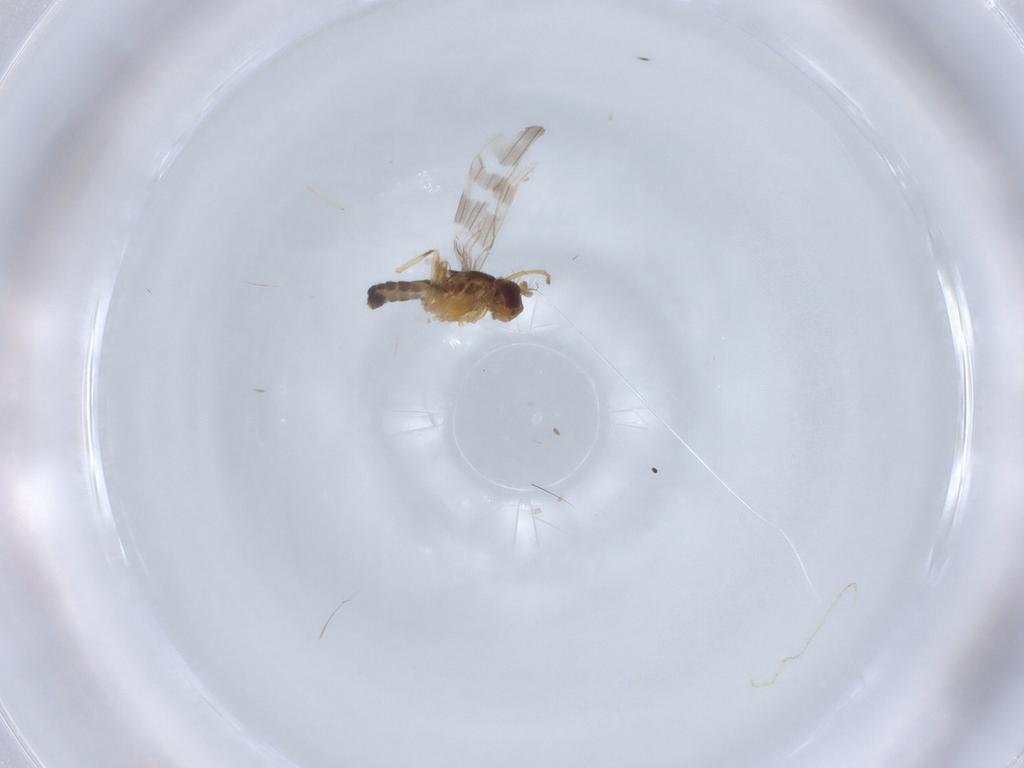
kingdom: Animalia
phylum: Arthropoda
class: Insecta
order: Diptera
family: Periscelididae
